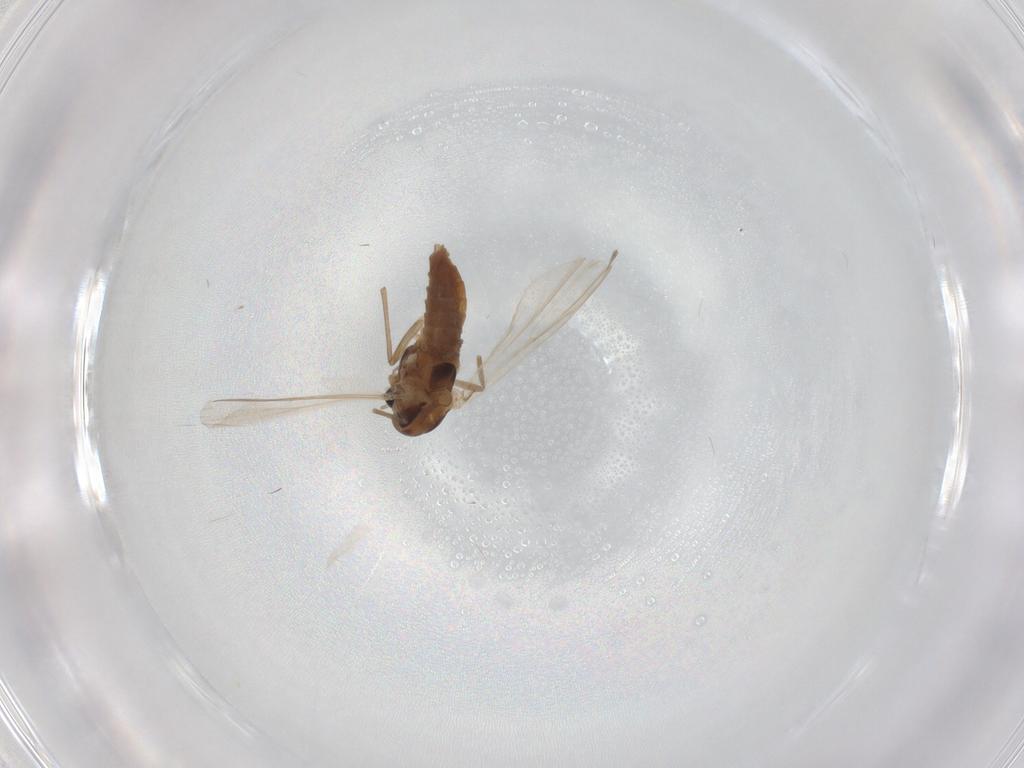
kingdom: Animalia
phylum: Arthropoda
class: Insecta
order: Diptera
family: Chironomidae
